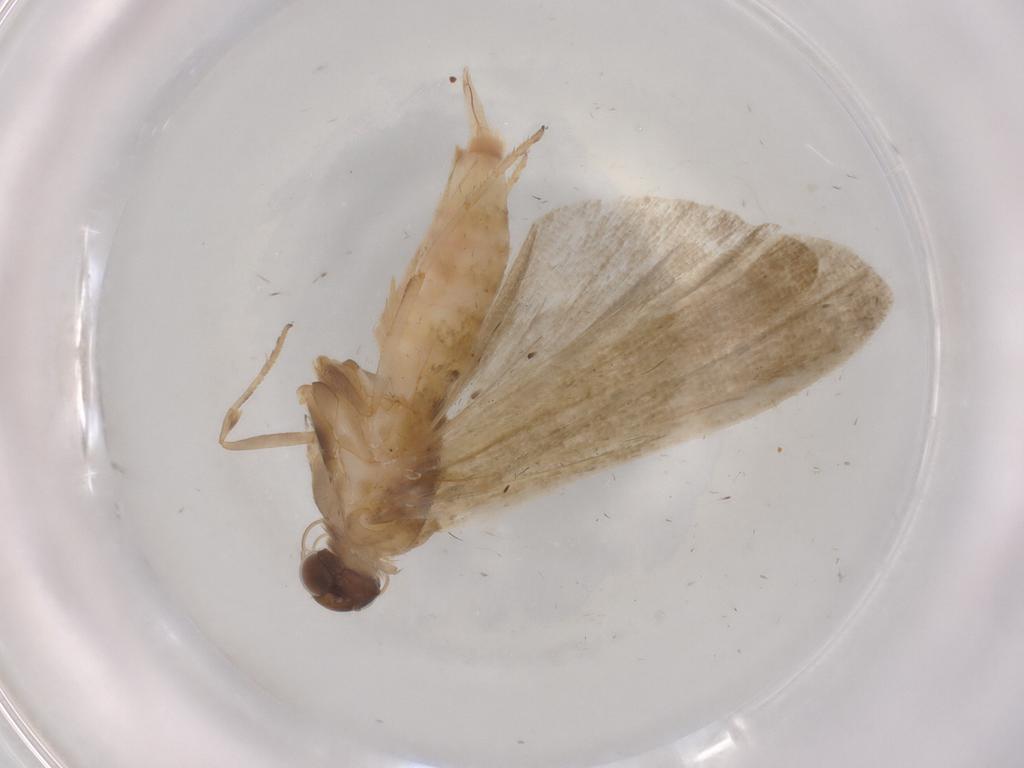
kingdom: Animalia
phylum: Arthropoda
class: Insecta
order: Lepidoptera
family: Noctuidae
